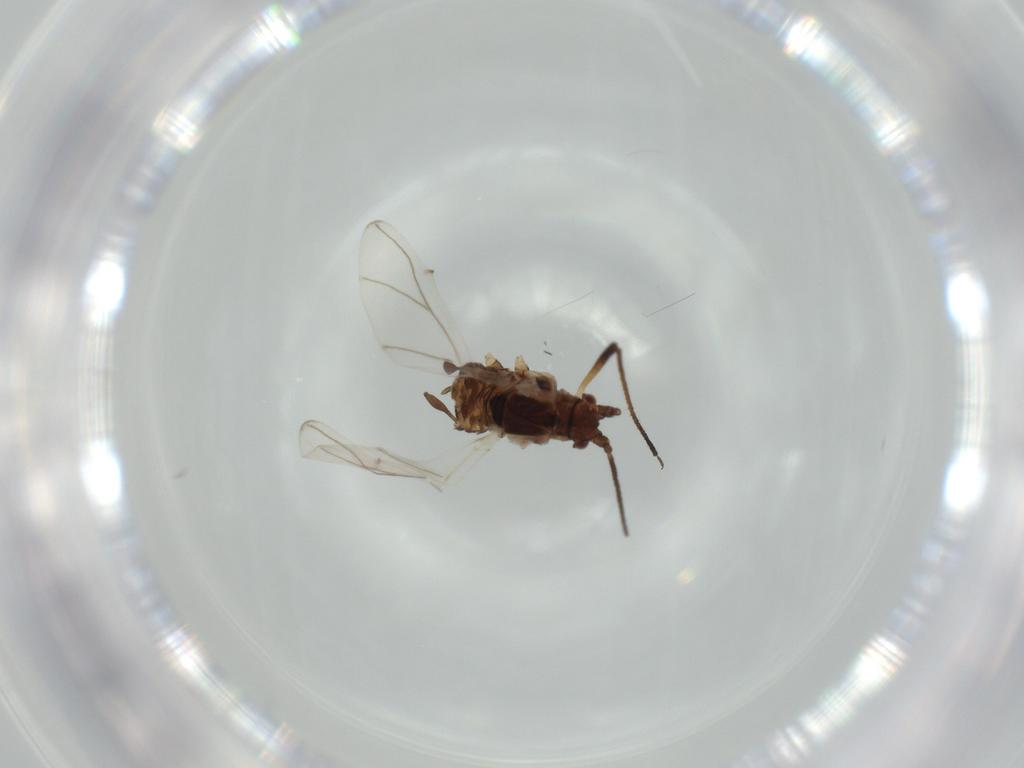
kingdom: Animalia
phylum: Arthropoda
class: Insecta
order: Hemiptera
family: Aphididae
